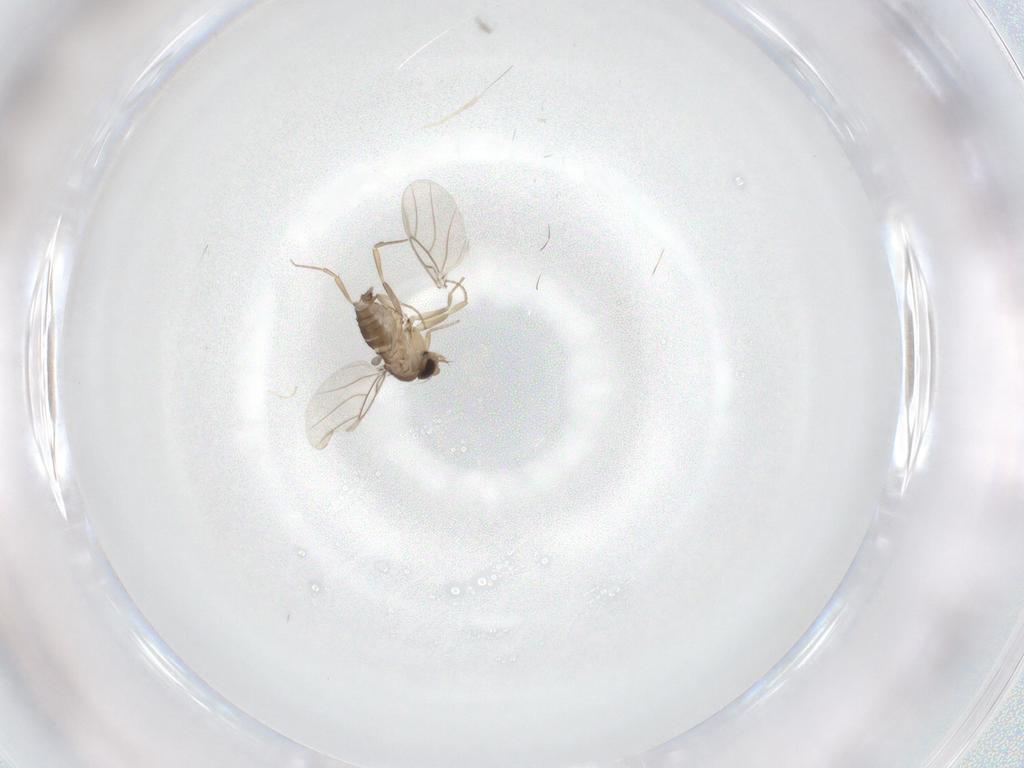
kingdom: Animalia
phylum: Arthropoda
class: Insecta
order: Diptera
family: Phoridae
